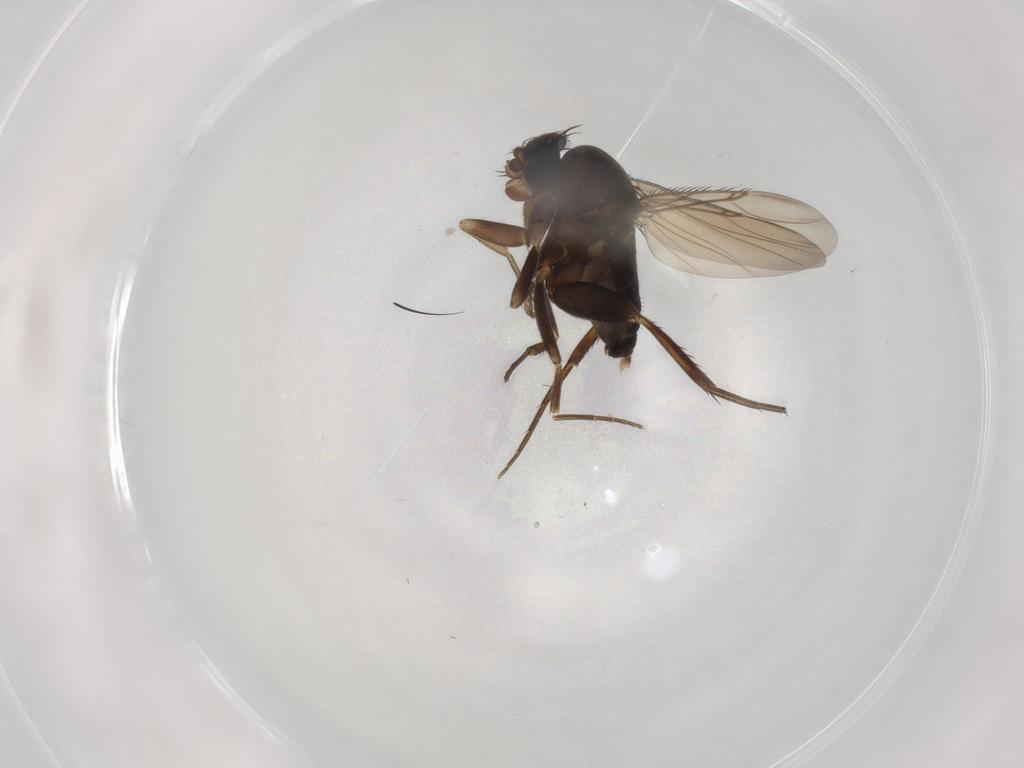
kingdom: Animalia
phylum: Arthropoda
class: Insecta
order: Diptera
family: Phoridae
